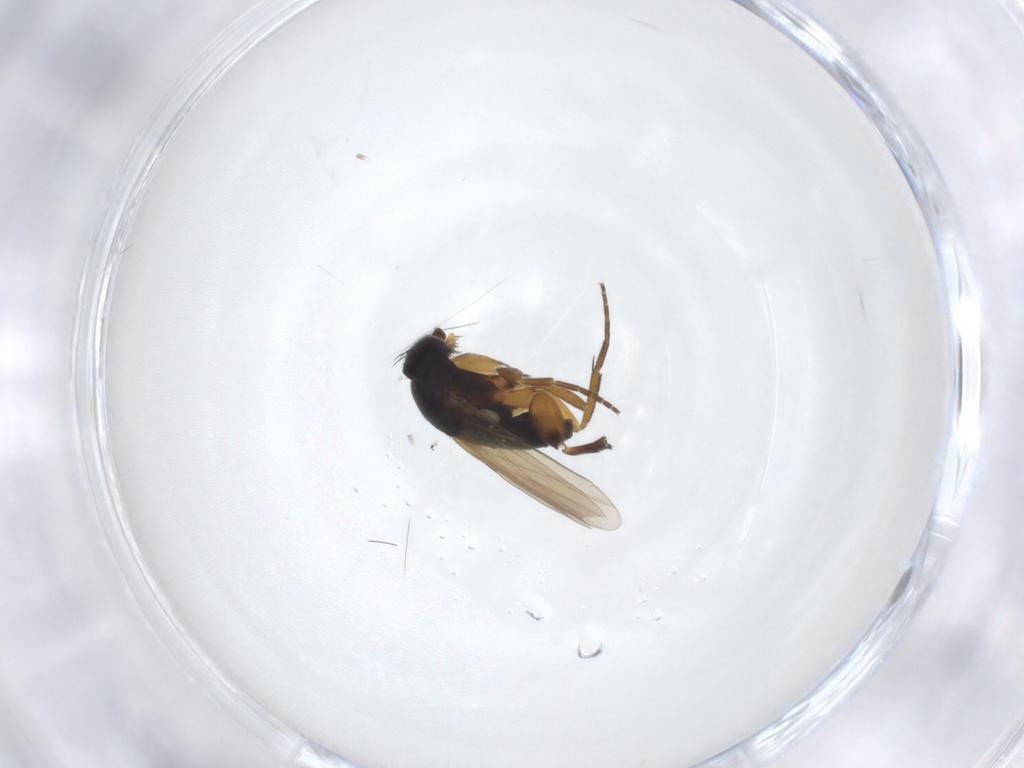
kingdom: Animalia
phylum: Arthropoda
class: Insecta
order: Diptera
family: Phoridae
